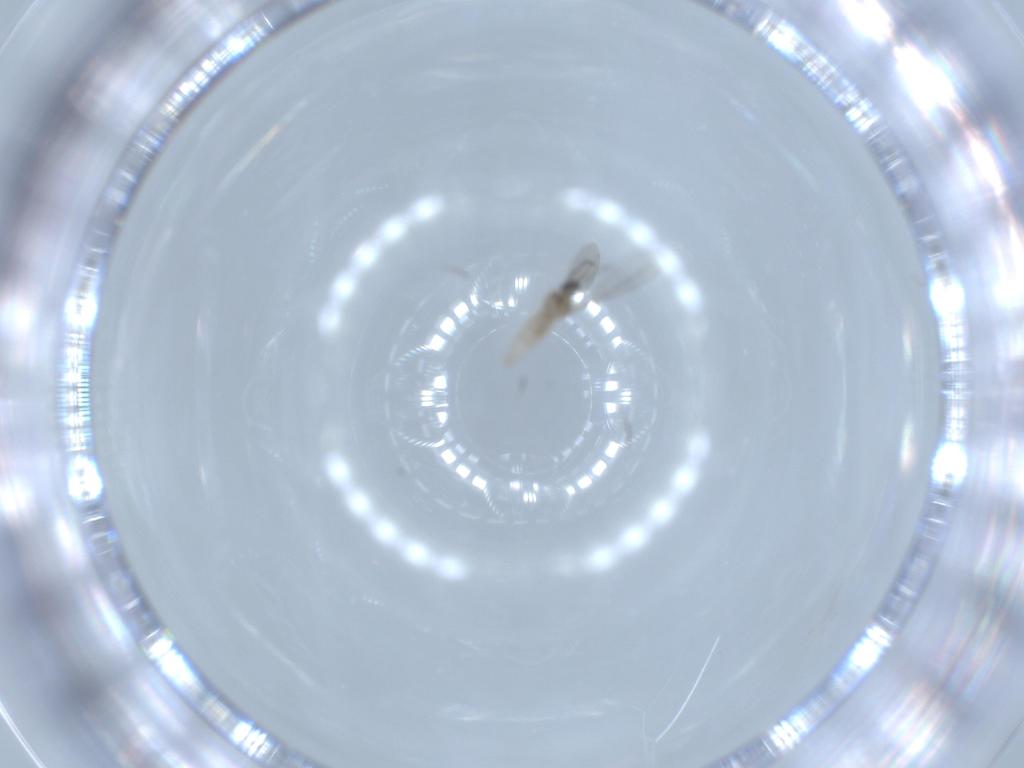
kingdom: Animalia
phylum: Arthropoda
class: Insecta
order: Diptera
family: Cecidomyiidae
